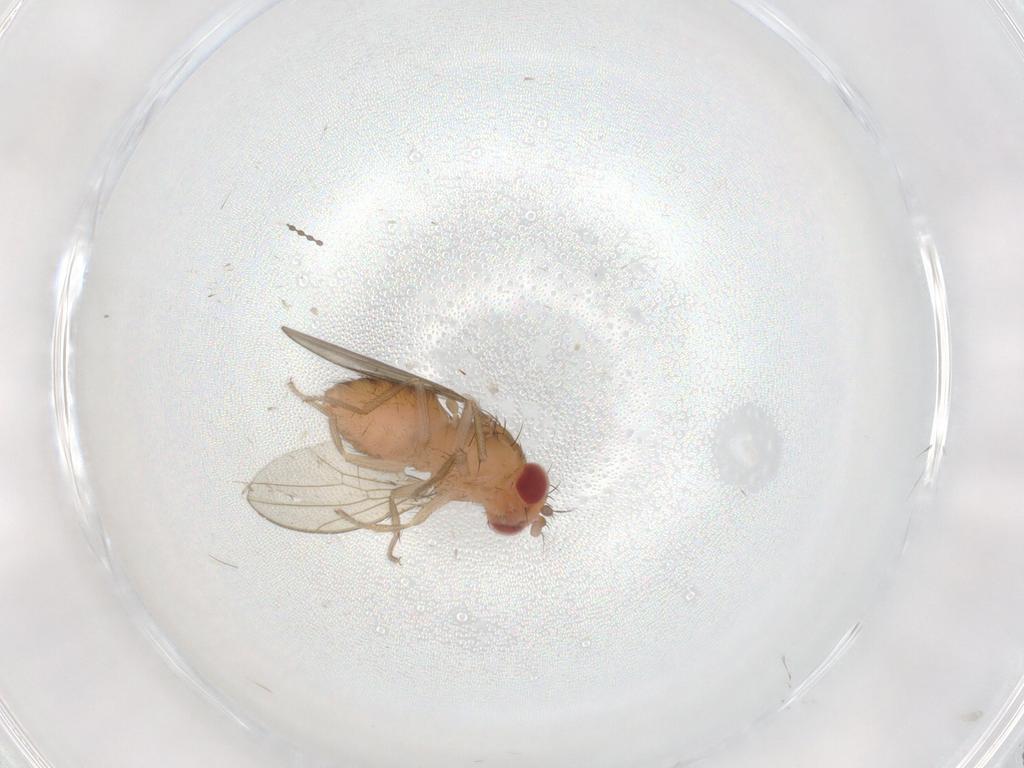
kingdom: Animalia
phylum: Arthropoda
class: Insecta
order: Diptera
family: Drosophilidae
